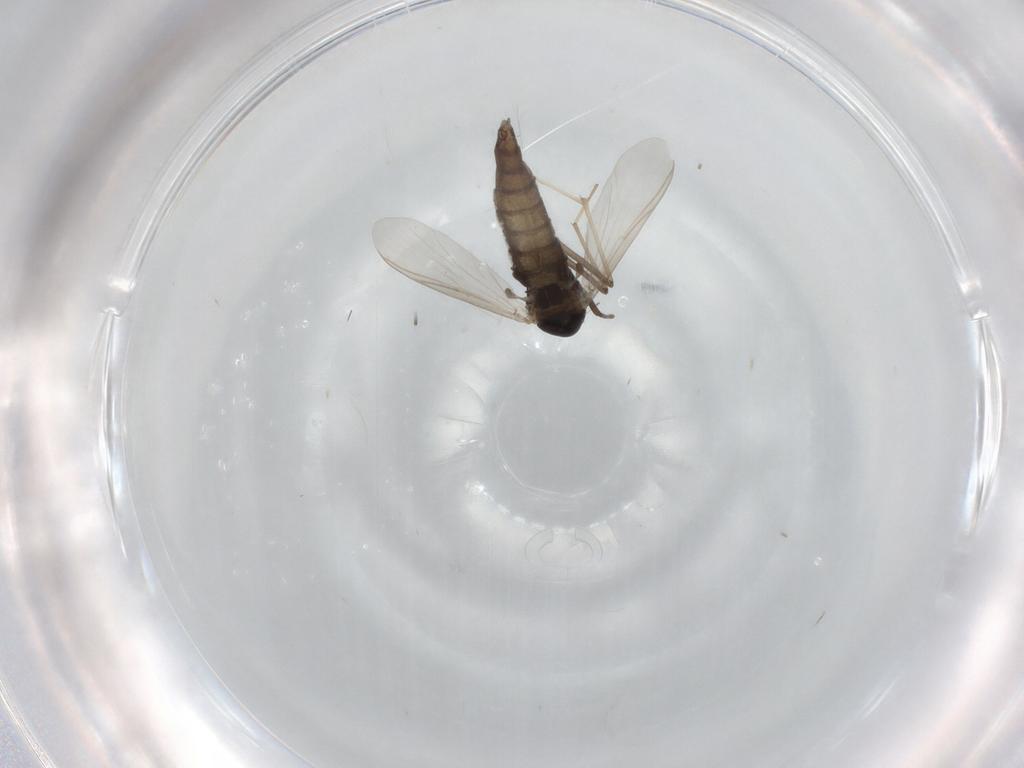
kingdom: Animalia
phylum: Arthropoda
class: Insecta
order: Diptera
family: Chironomidae
